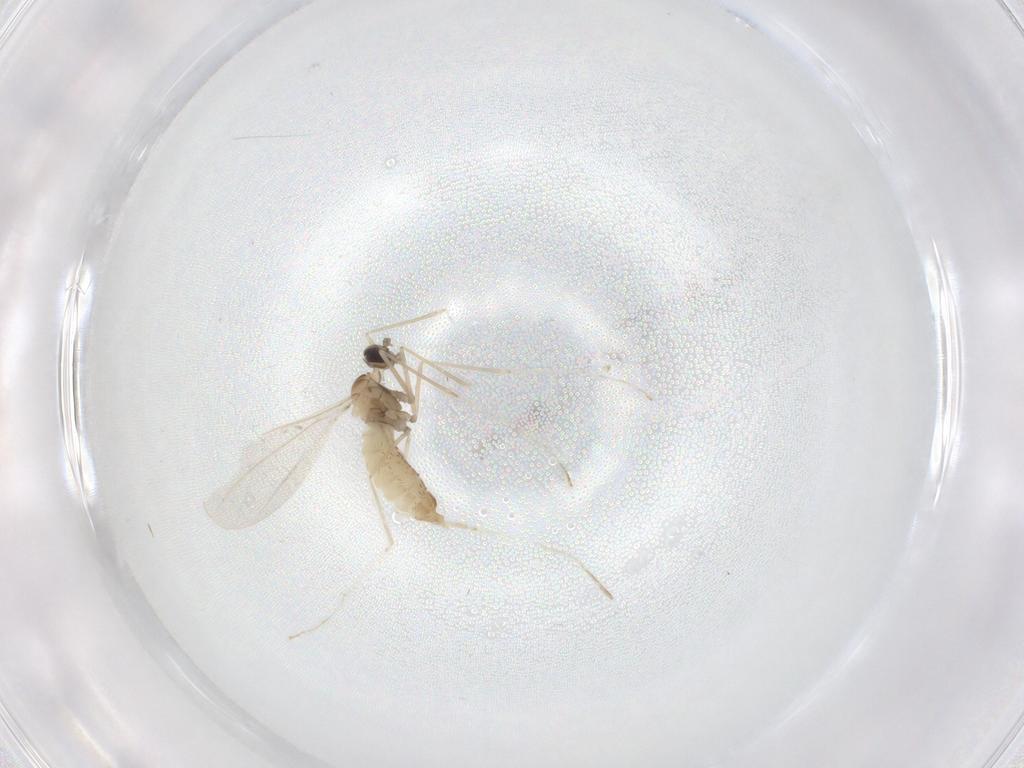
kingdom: Animalia
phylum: Arthropoda
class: Insecta
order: Diptera
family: Cecidomyiidae
